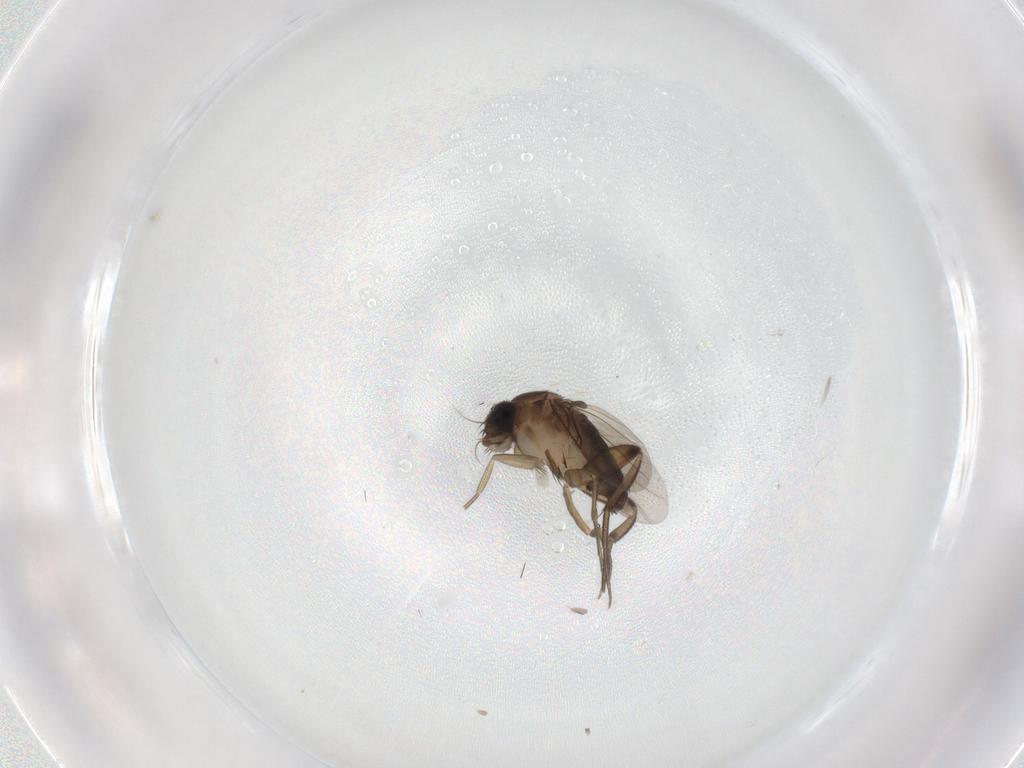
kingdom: Animalia
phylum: Arthropoda
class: Insecta
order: Diptera
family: Phoridae
